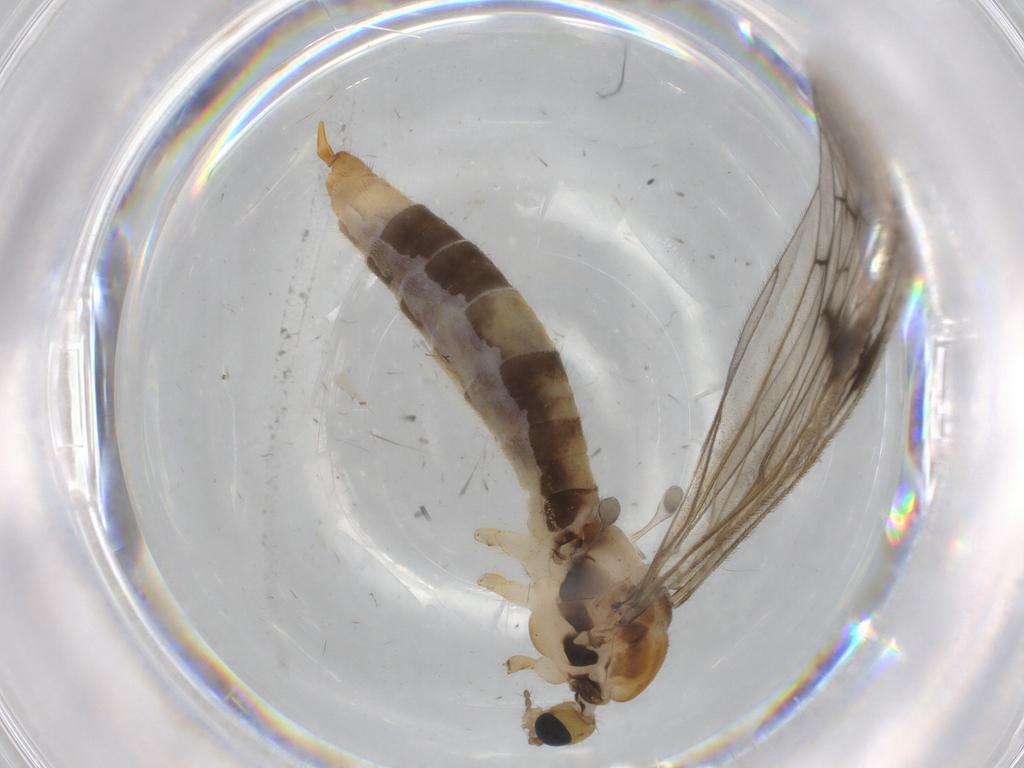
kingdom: Animalia
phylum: Arthropoda
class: Insecta
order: Diptera
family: Limoniidae
